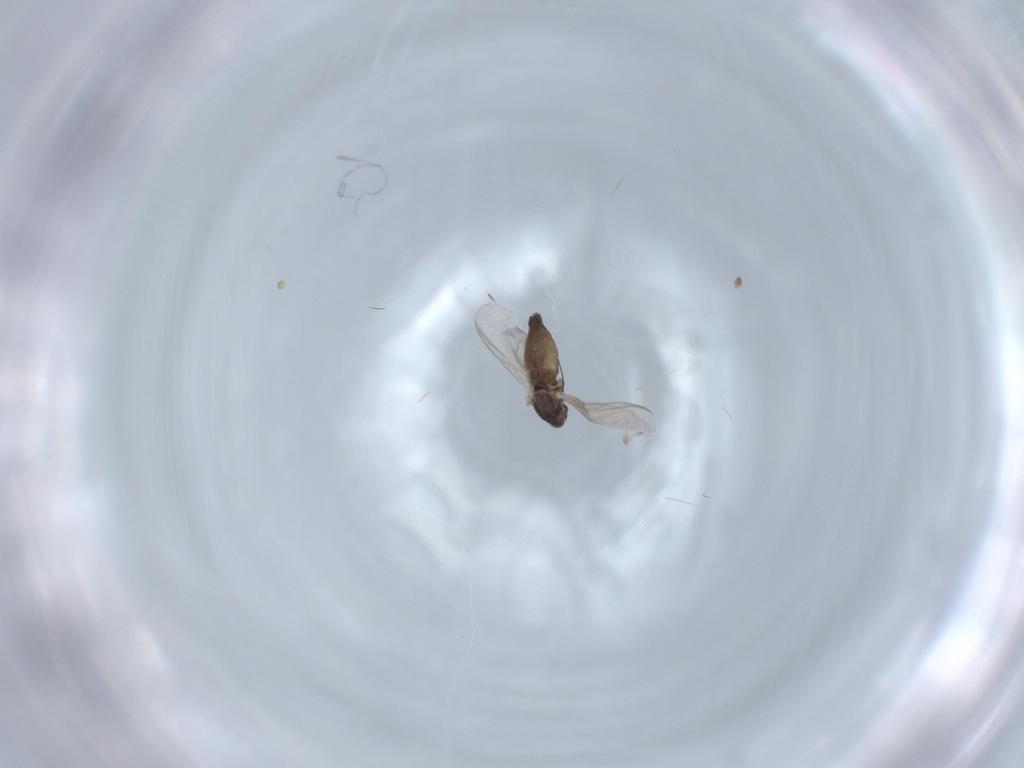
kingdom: Animalia
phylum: Arthropoda
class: Insecta
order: Diptera
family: Chironomidae
